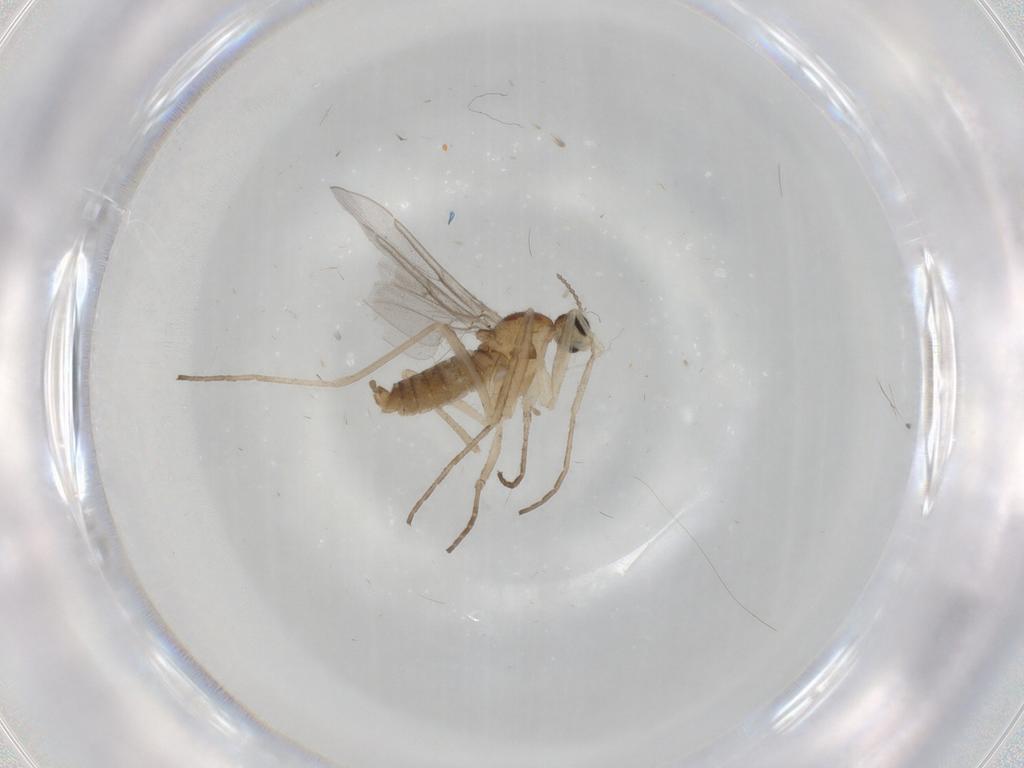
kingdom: Animalia
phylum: Arthropoda
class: Insecta
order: Diptera
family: Cecidomyiidae
